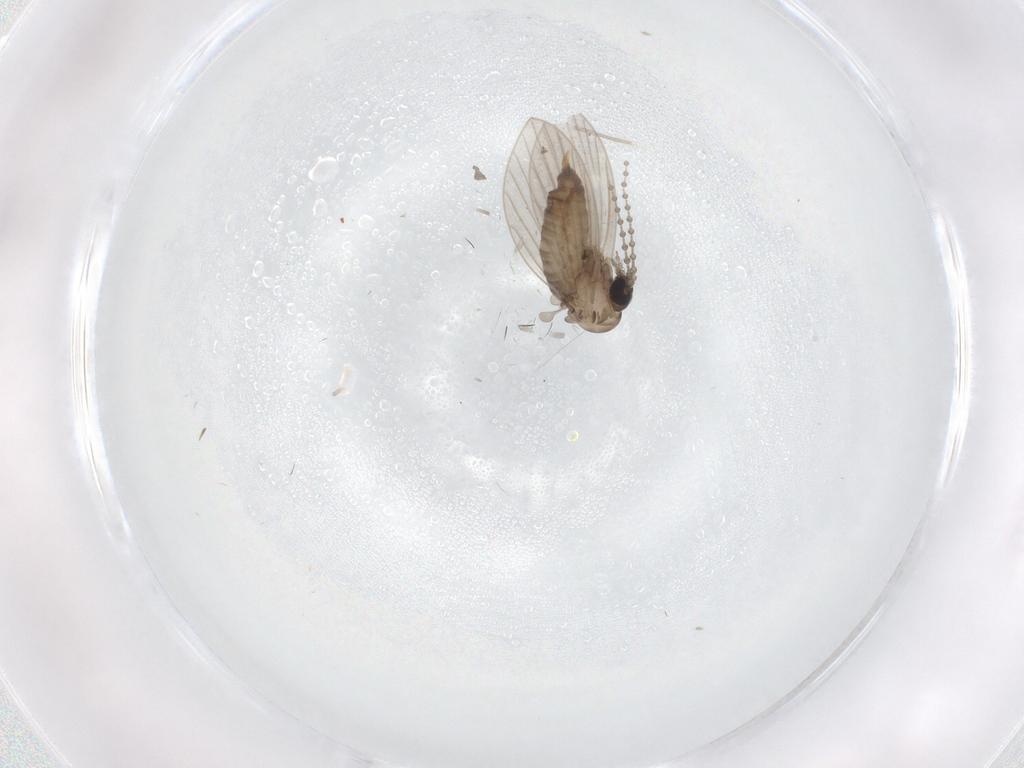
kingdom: Animalia
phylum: Arthropoda
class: Insecta
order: Diptera
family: Psychodidae
